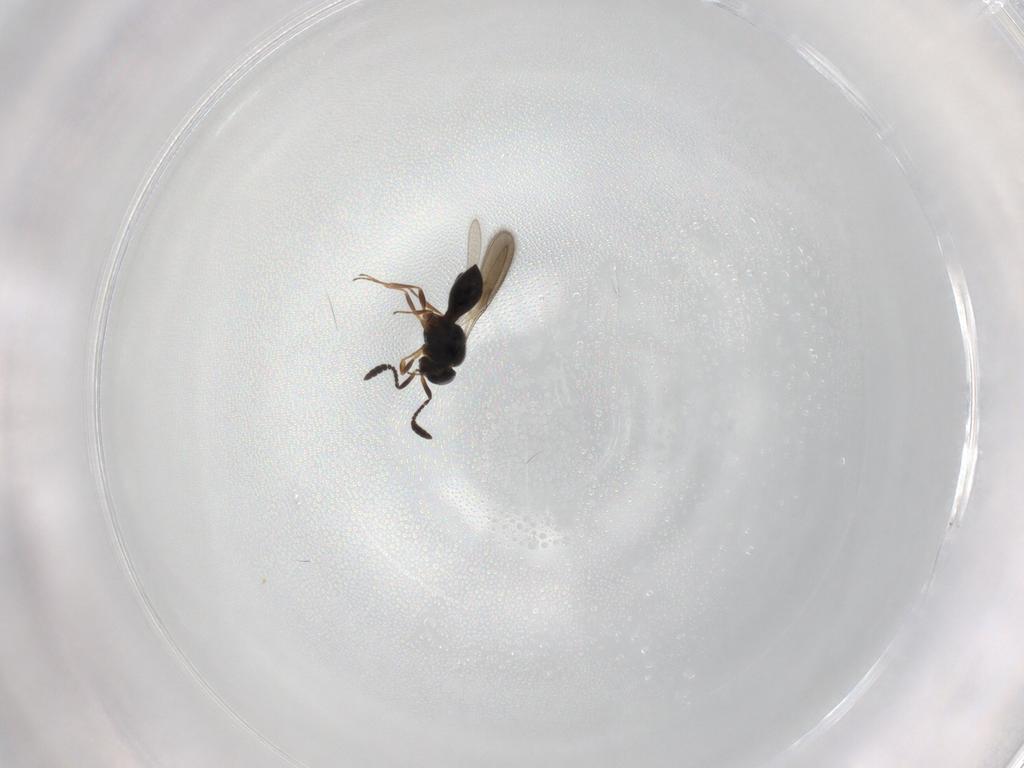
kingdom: Animalia
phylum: Arthropoda
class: Insecta
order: Hymenoptera
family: Scelionidae
